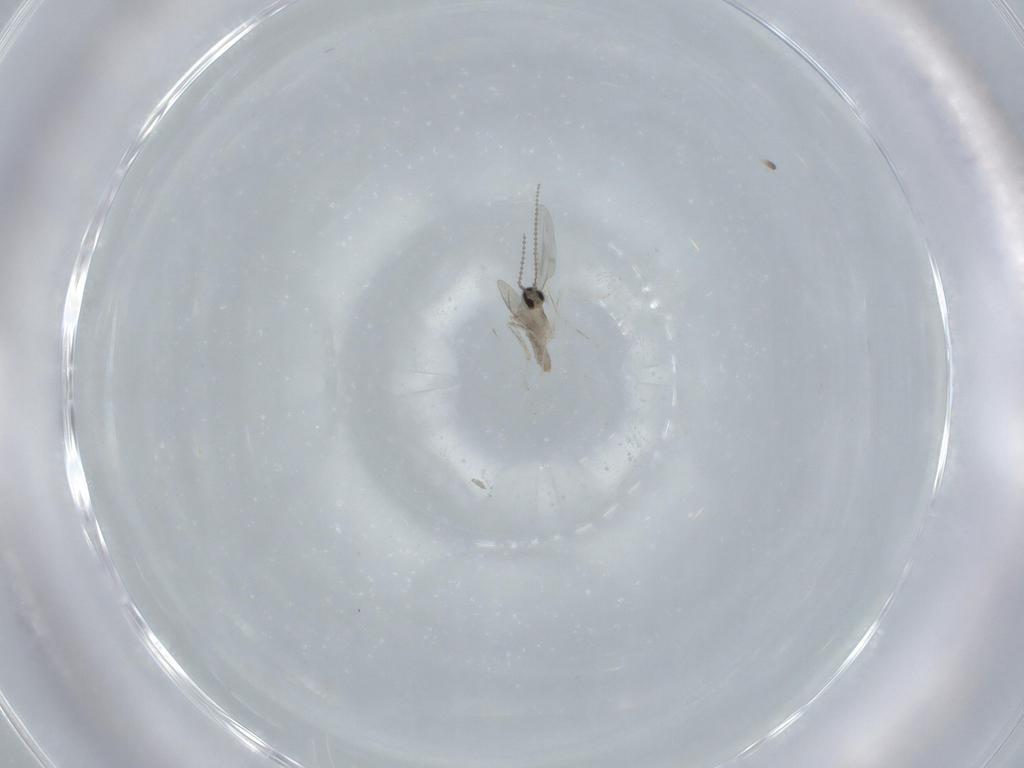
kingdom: Animalia
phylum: Arthropoda
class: Insecta
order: Diptera
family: Cecidomyiidae
